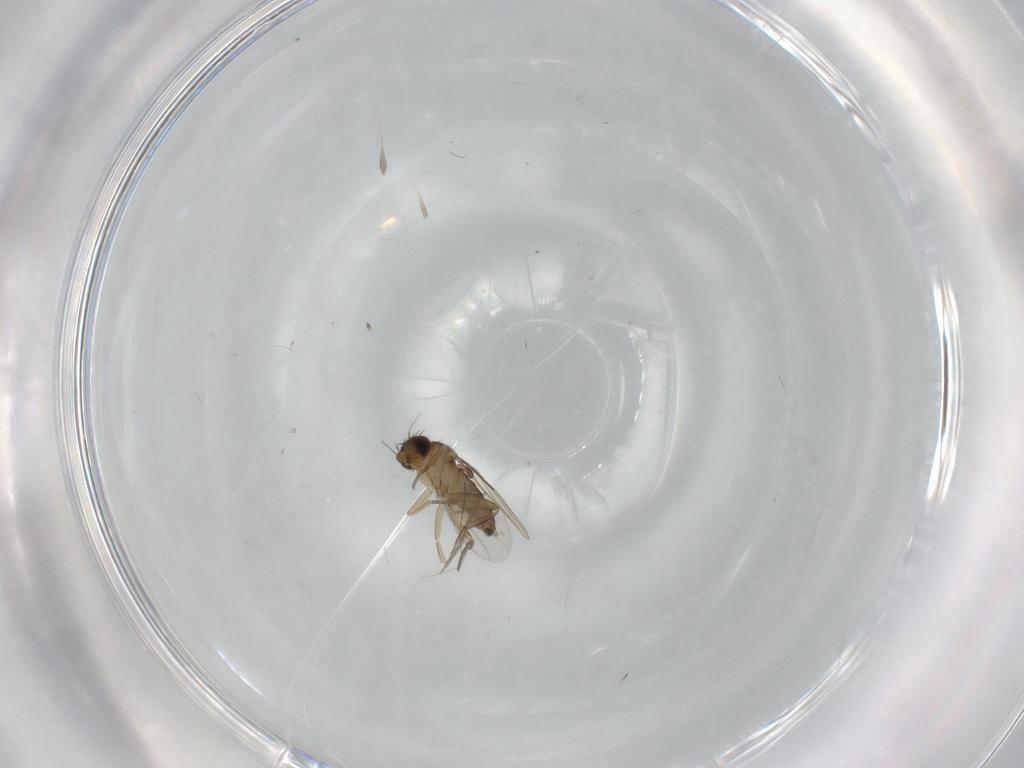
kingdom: Animalia
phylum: Arthropoda
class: Insecta
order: Diptera
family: Phoridae
